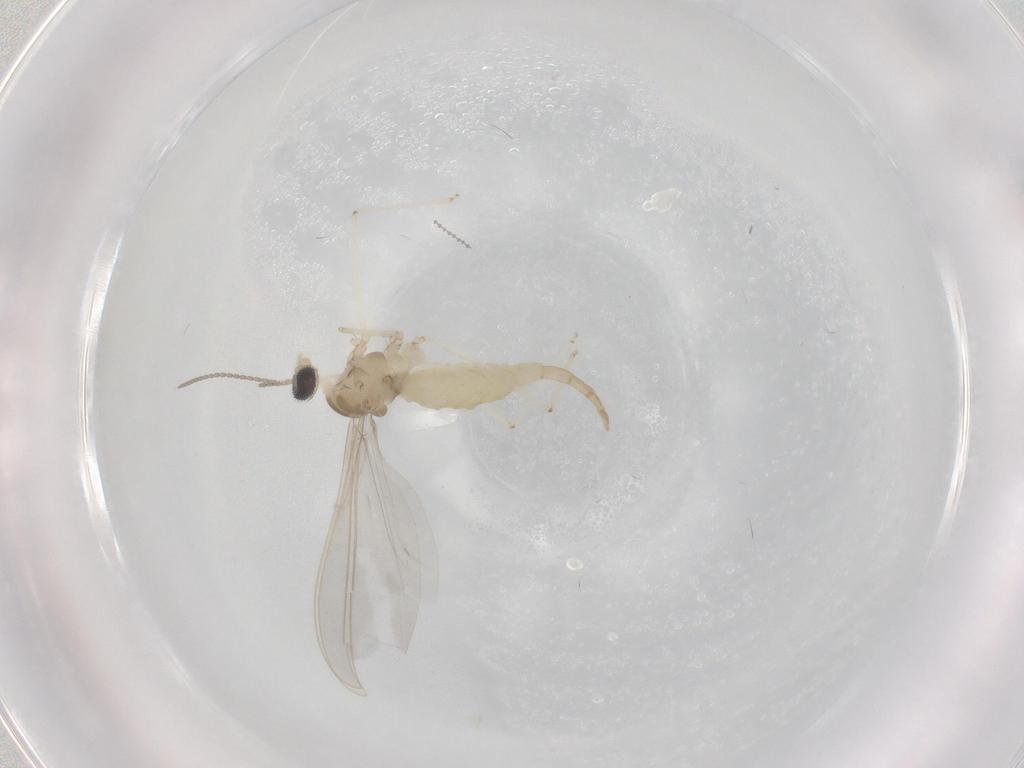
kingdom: Animalia
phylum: Arthropoda
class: Insecta
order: Diptera
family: Cecidomyiidae
